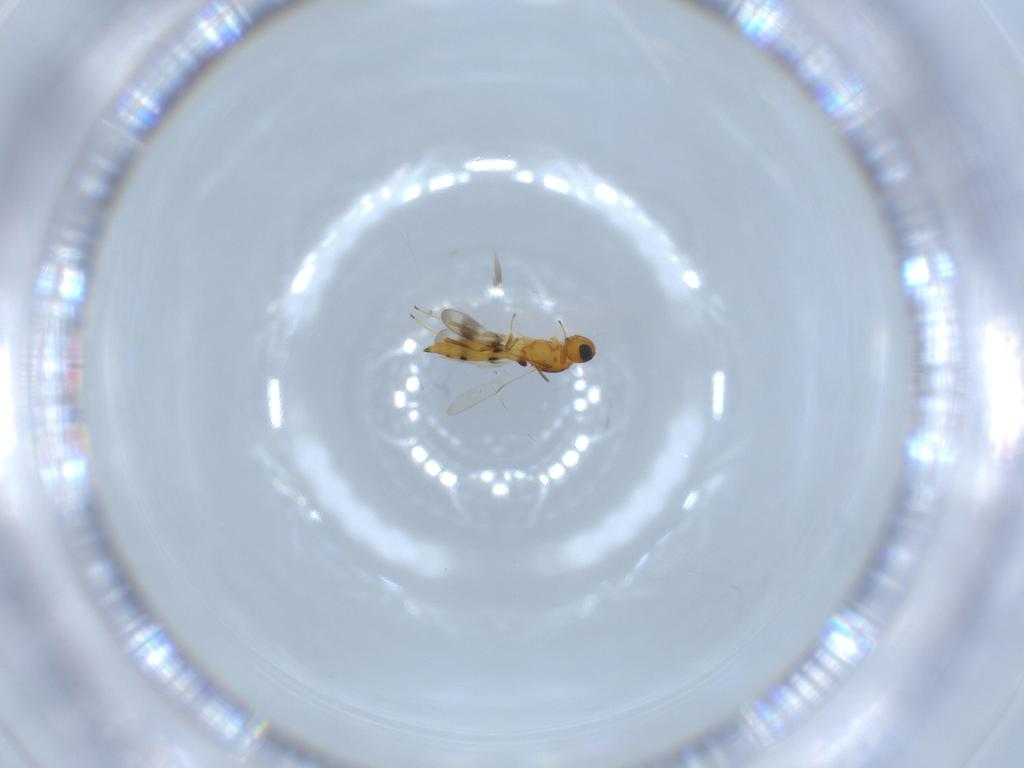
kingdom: Animalia
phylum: Arthropoda
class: Insecta
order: Hymenoptera
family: Scelionidae
